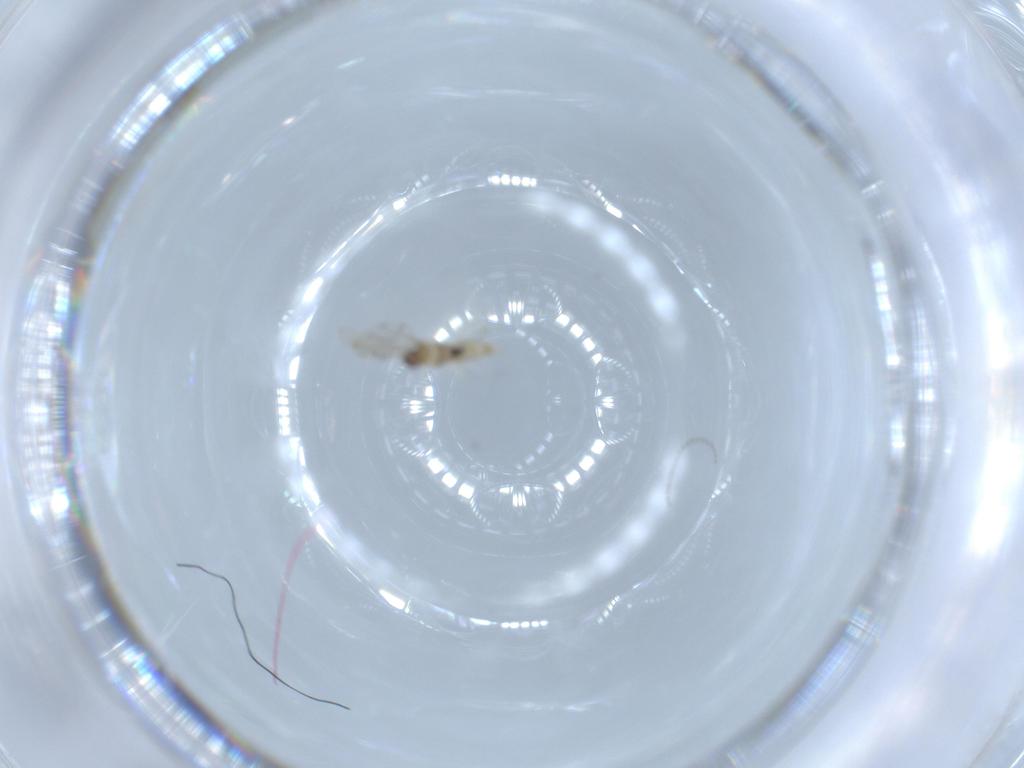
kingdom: Animalia
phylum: Arthropoda
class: Insecta
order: Diptera
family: Cecidomyiidae
